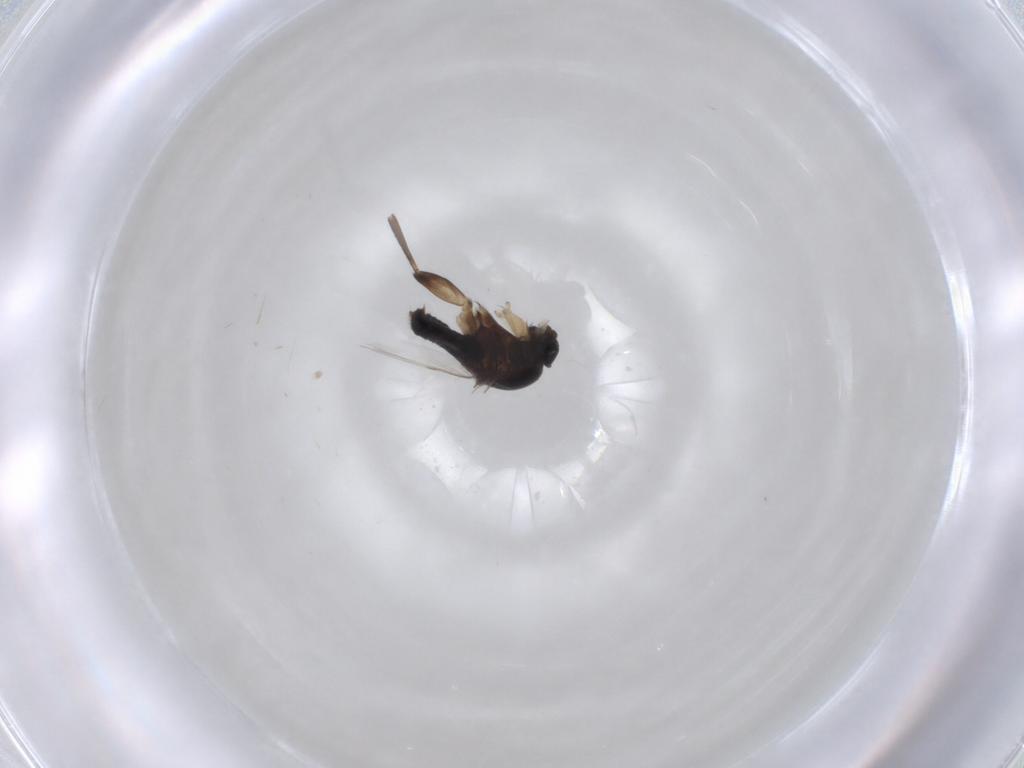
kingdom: Animalia
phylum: Arthropoda
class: Insecta
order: Diptera
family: Phoridae
